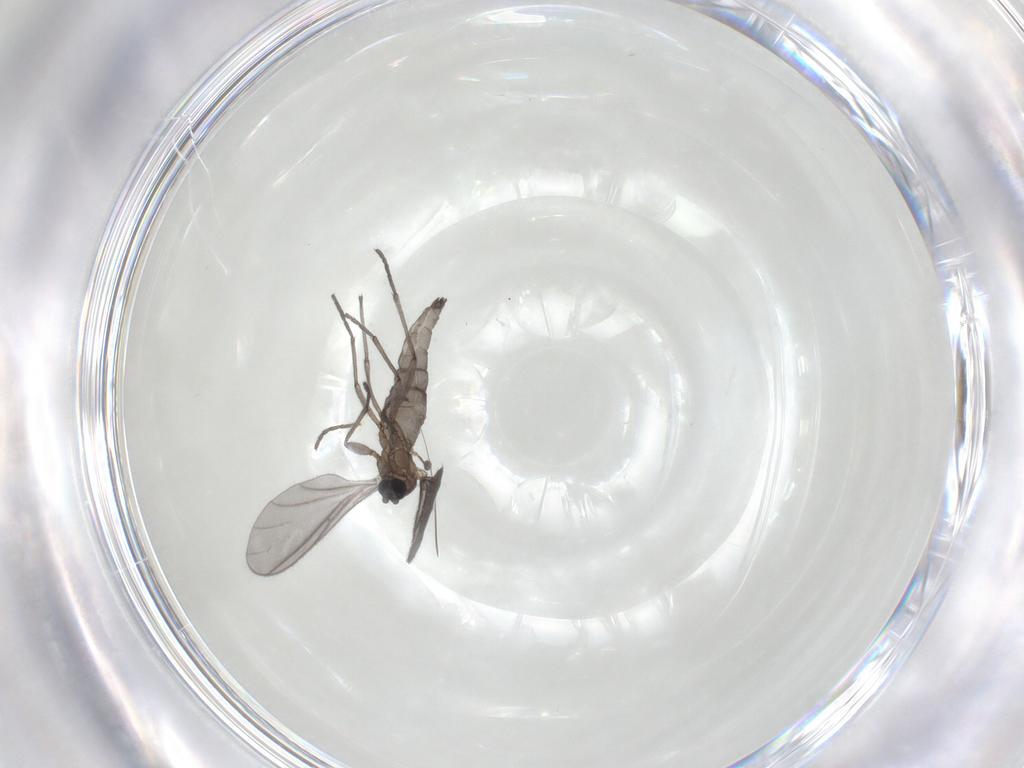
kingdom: Animalia
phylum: Arthropoda
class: Insecta
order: Diptera
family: Sciaridae
